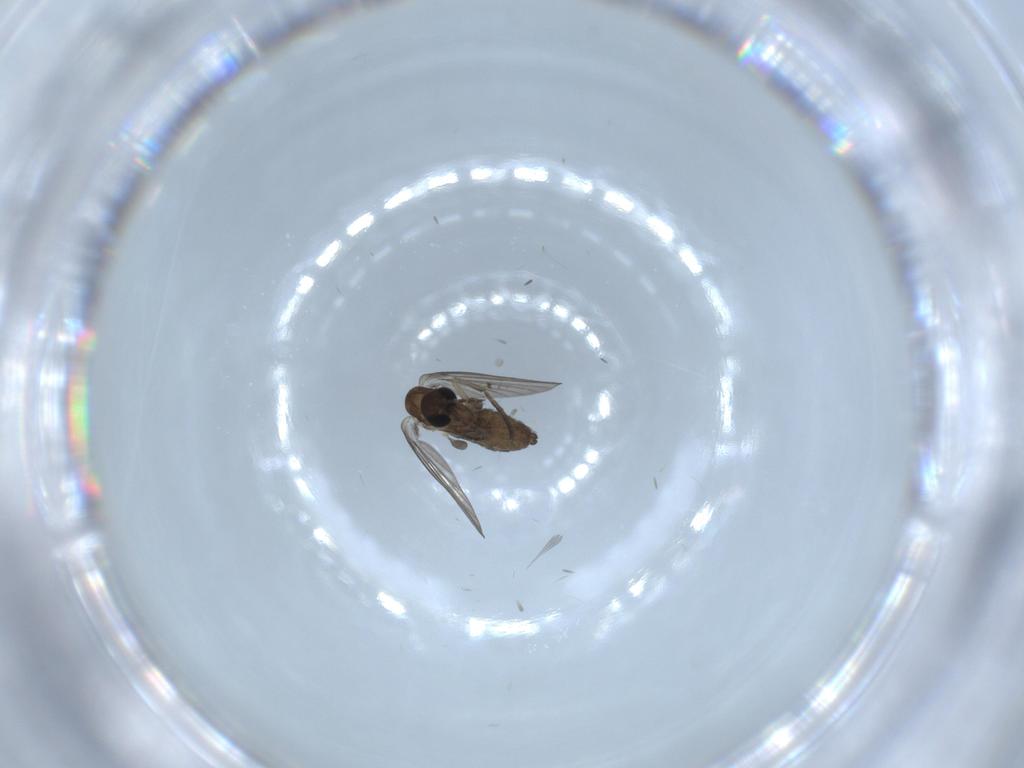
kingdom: Animalia
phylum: Arthropoda
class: Insecta
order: Diptera
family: Psychodidae
